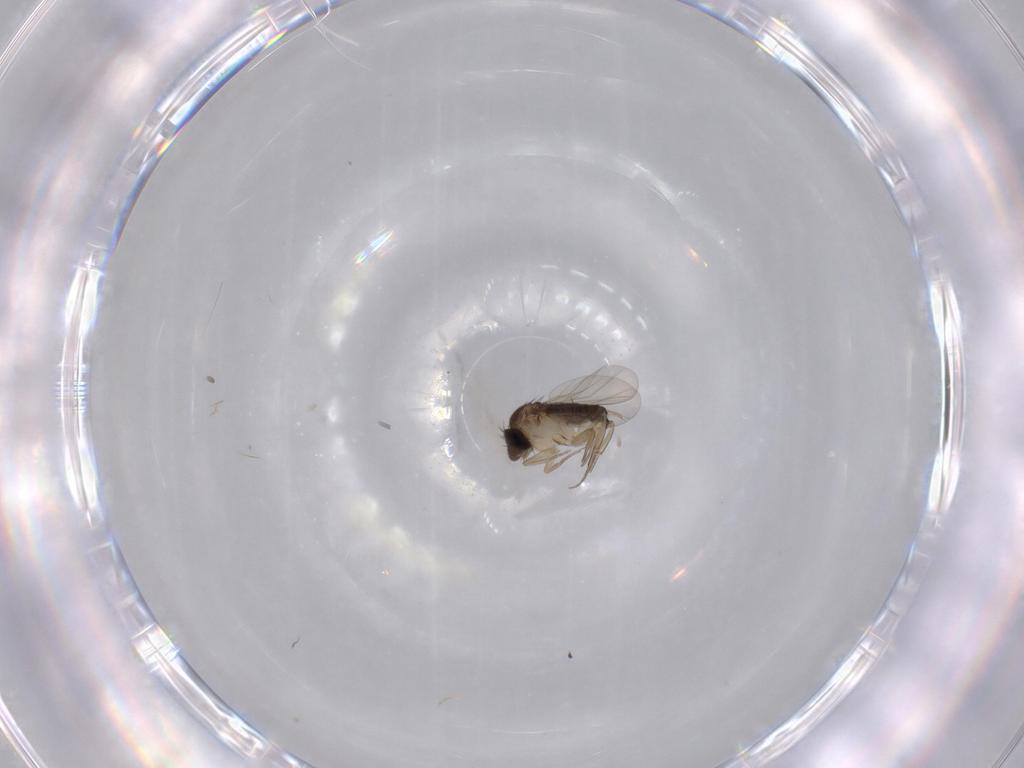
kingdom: Animalia
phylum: Arthropoda
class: Insecta
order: Diptera
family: Phoridae
